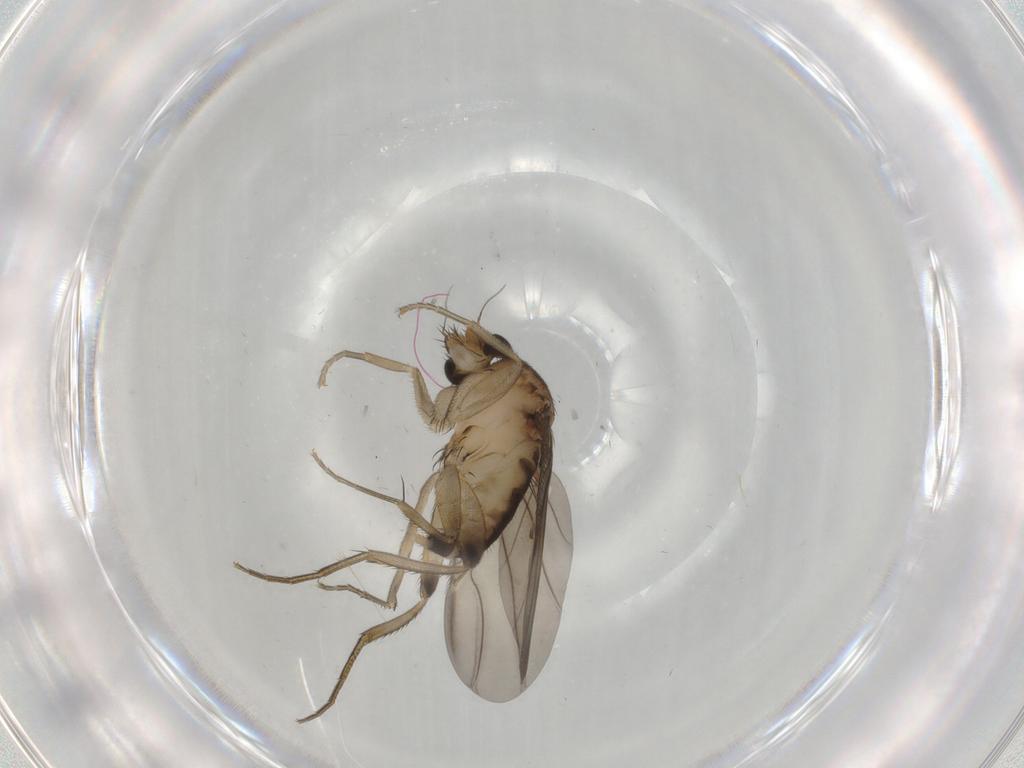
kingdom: Animalia
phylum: Arthropoda
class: Insecta
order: Diptera
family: Phoridae
